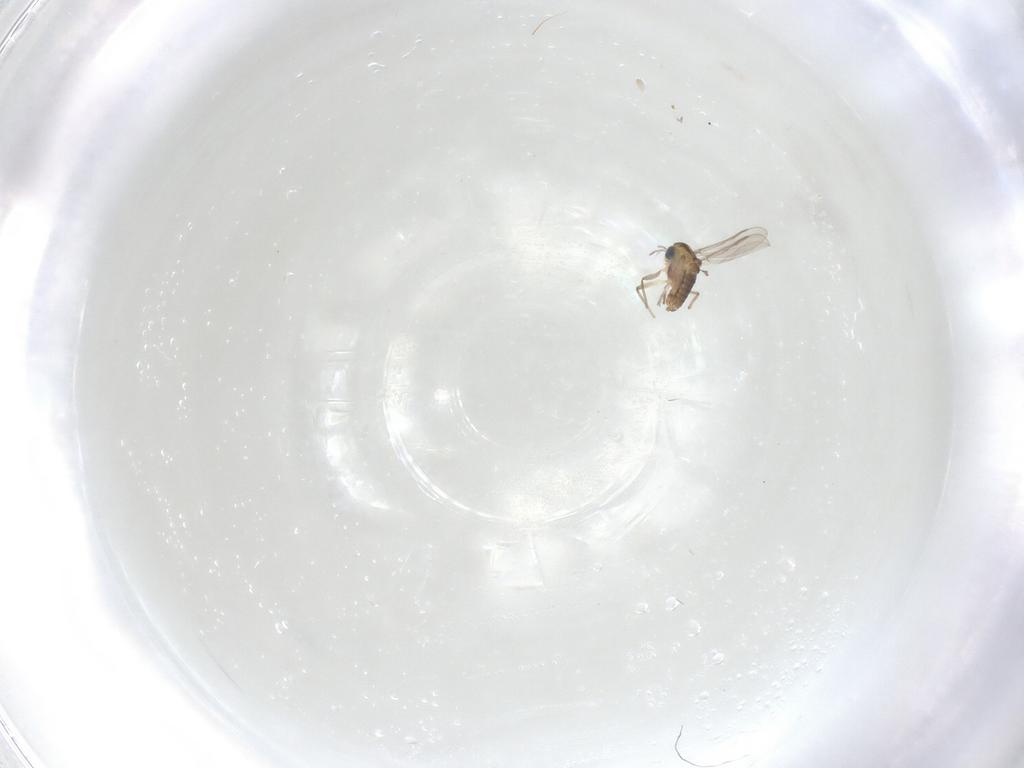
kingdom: Animalia
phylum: Arthropoda
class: Insecta
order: Diptera
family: Chironomidae
